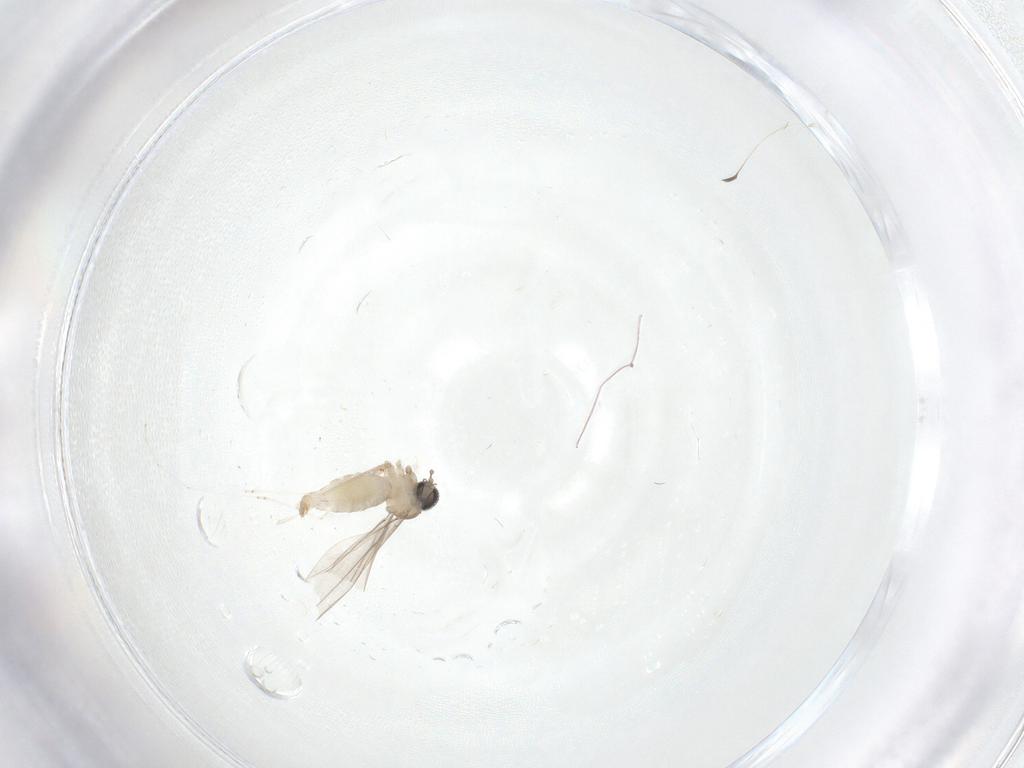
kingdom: Animalia
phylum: Arthropoda
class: Insecta
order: Diptera
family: Cecidomyiidae
